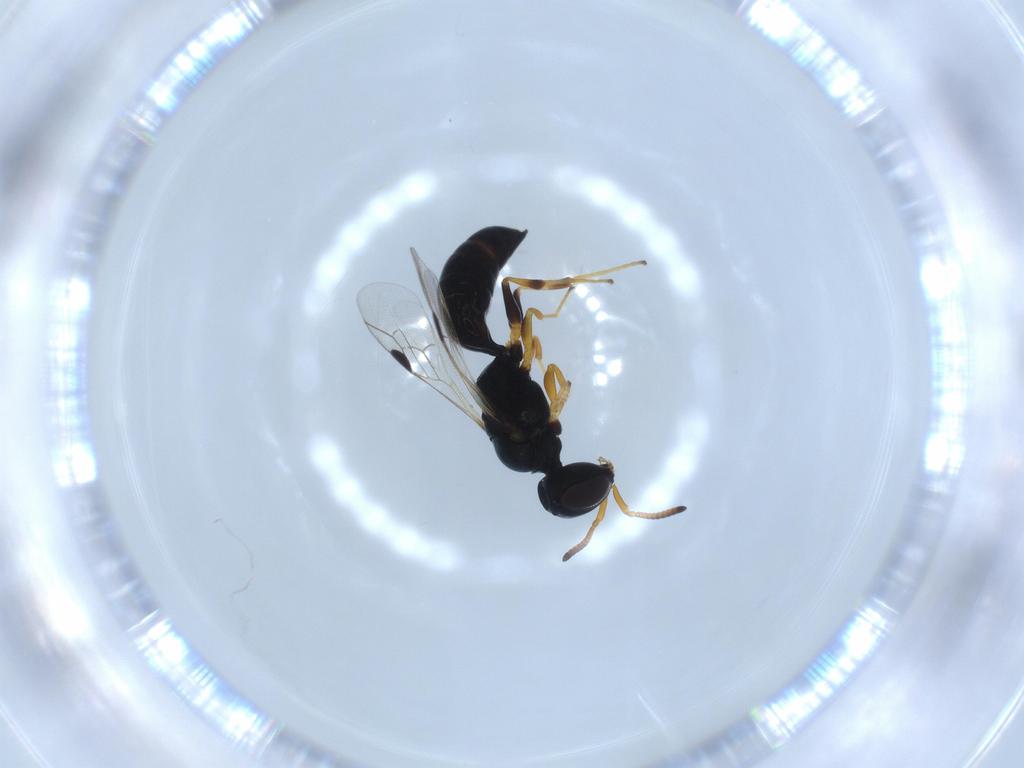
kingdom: Animalia
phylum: Arthropoda
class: Insecta
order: Hymenoptera
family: Formicidae
